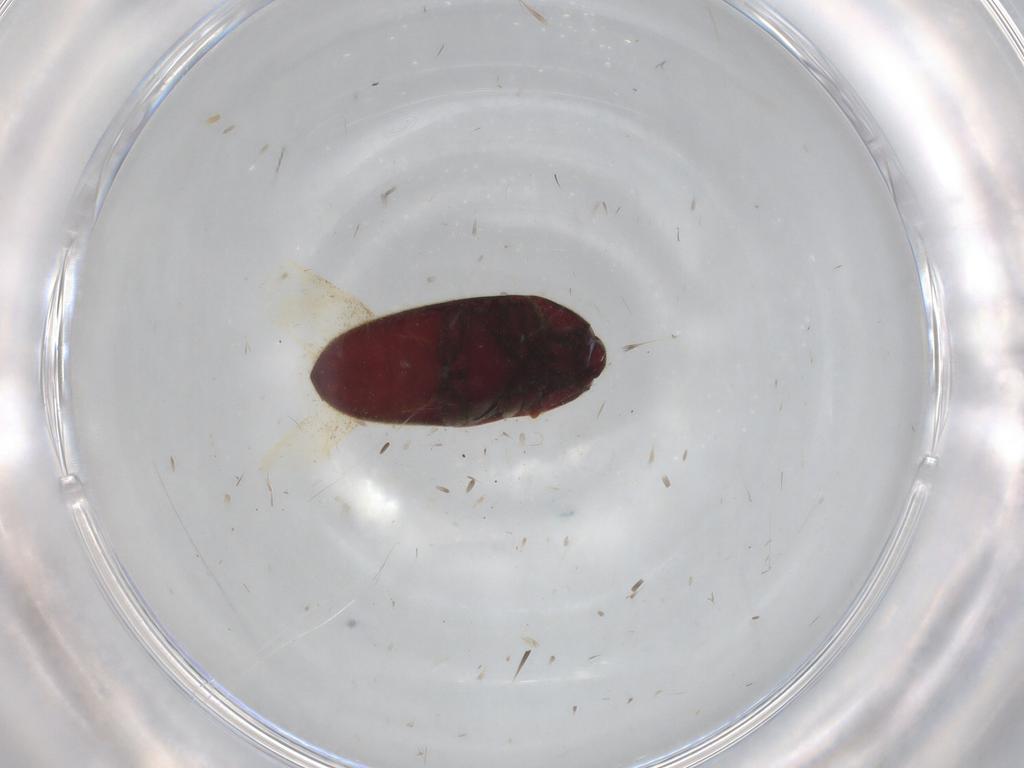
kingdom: Animalia
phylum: Arthropoda
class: Insecta
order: Coleoptera
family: Throscidae
